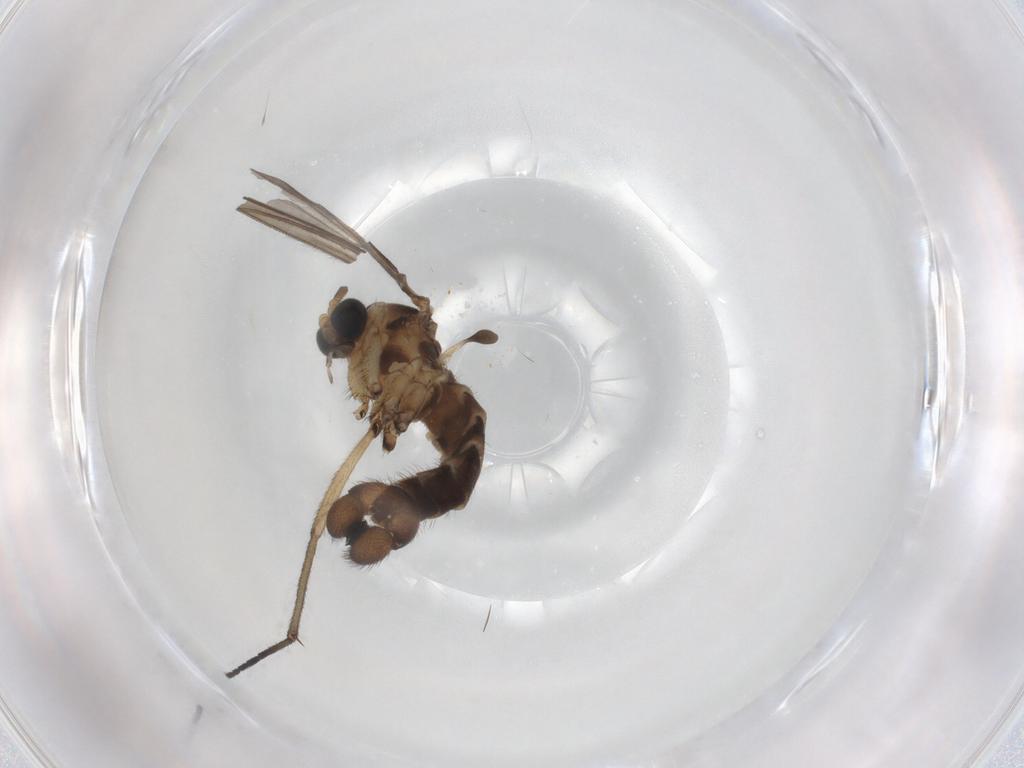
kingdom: Animalia
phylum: Arthropoda
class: Insecta
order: Diptera
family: Sciaridae
